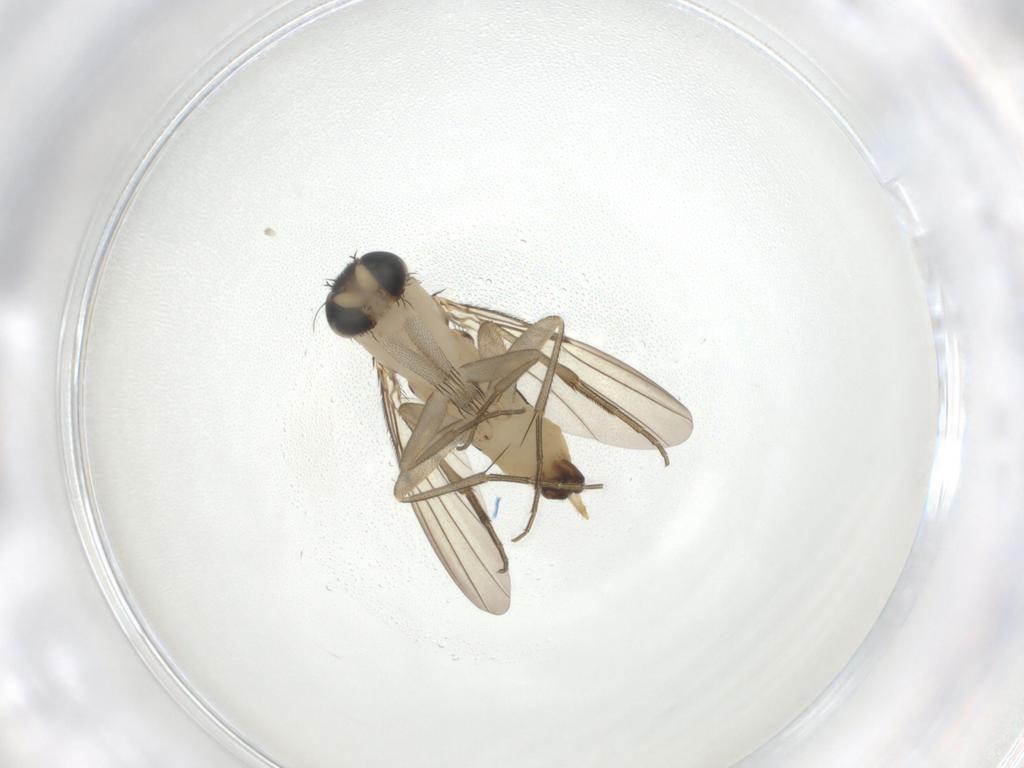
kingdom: Animalia
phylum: Arthropoda
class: Insecta
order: Diptera
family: Phoridae
